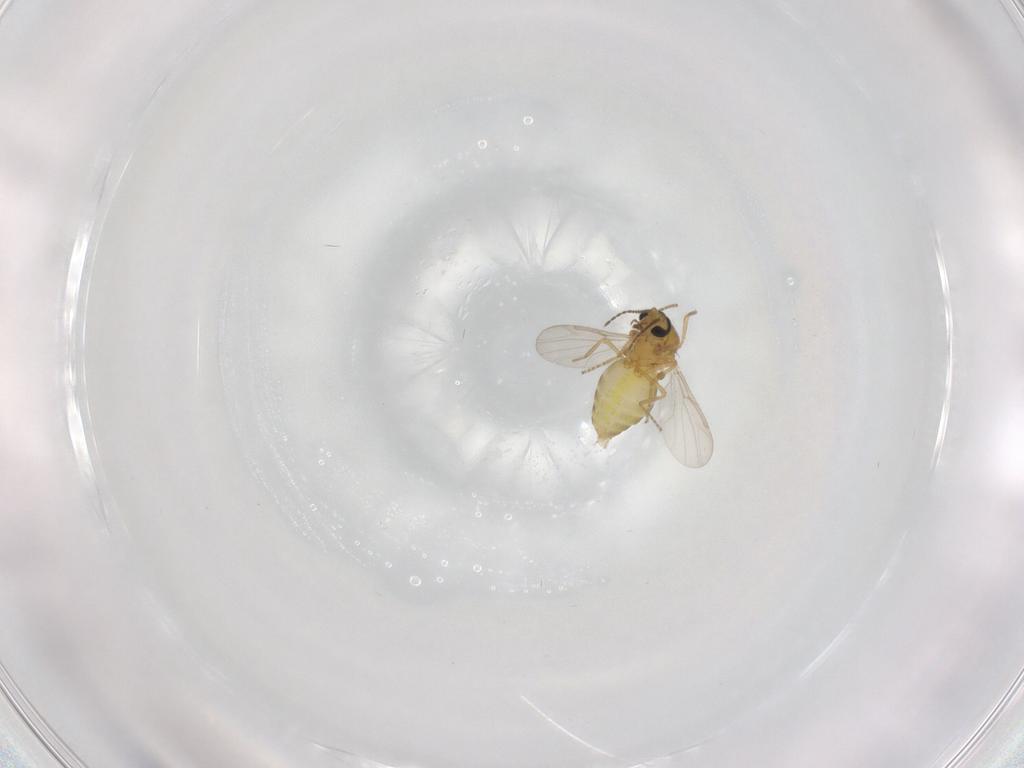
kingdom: Animalia
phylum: Arthropoda
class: Insecta
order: Diptera
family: Ceratopogonidae
